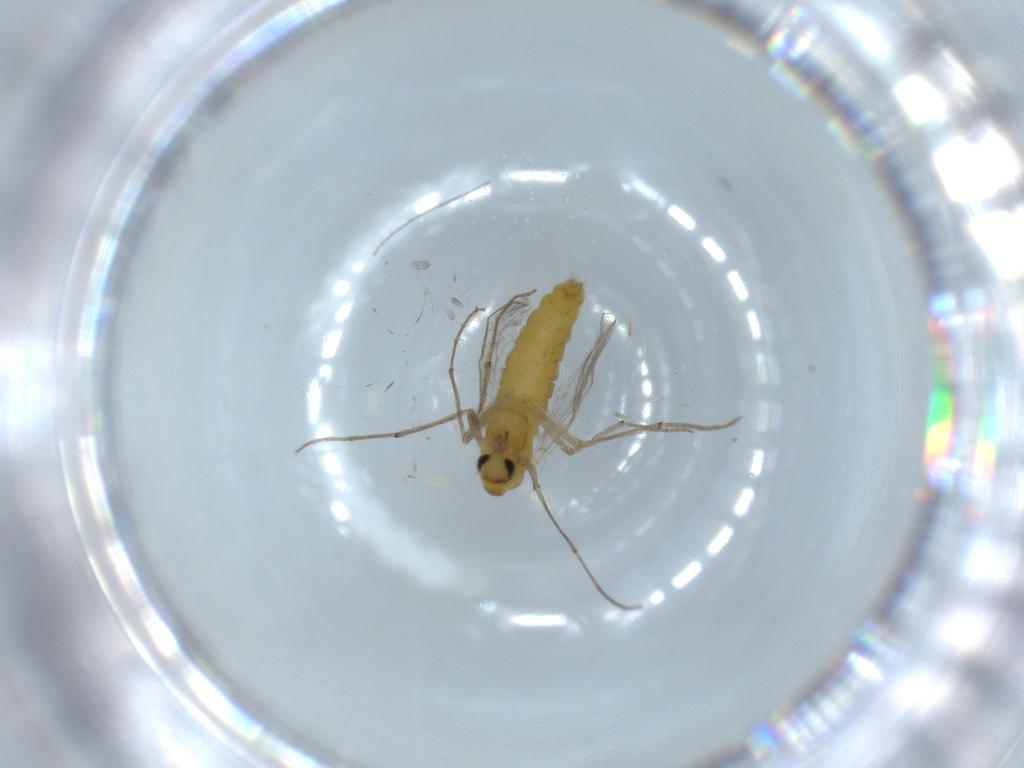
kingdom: Animalia
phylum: Arthropoda
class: Insecta
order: Diptera
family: Chironomidae
